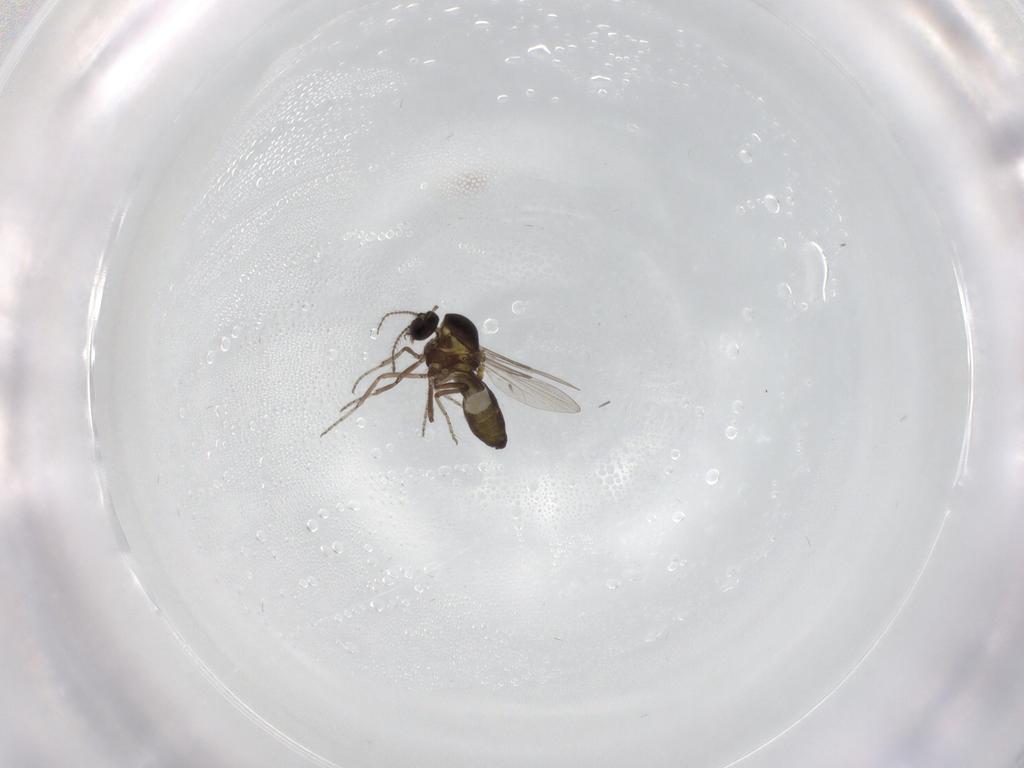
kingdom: Animalia
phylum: Arthropoda
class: Insecta
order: Diptera
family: Ceratopogonidae
